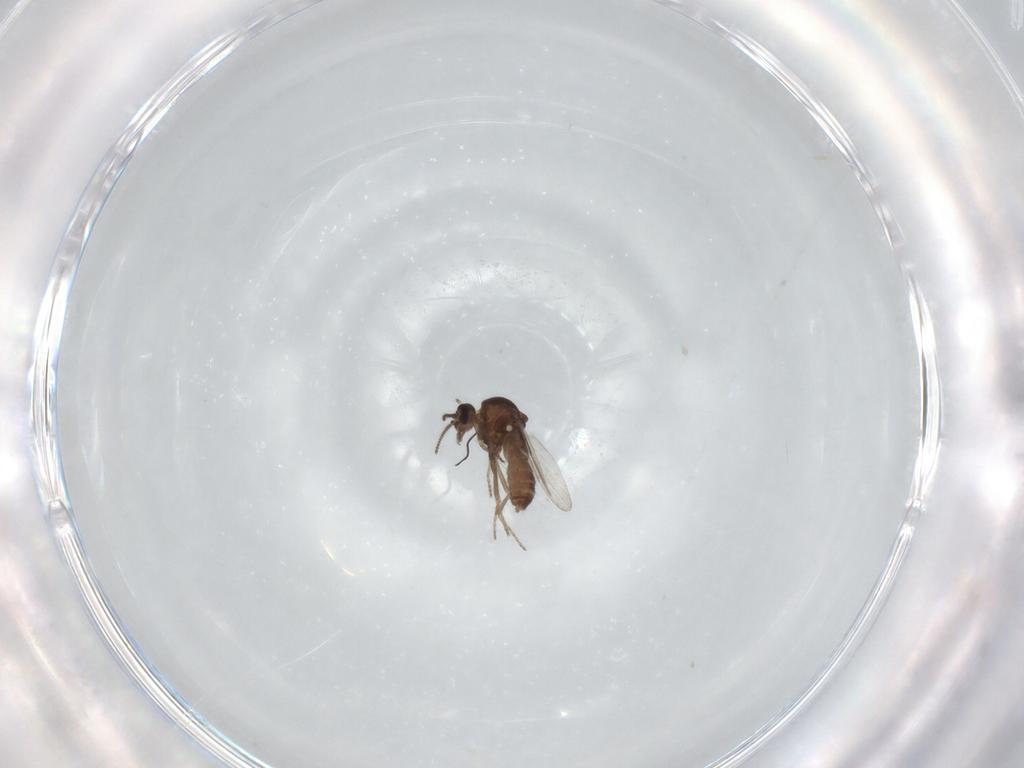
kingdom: Animalia
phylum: Arthropoda
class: Insecta
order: Diptera
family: Ceratopogonidae
